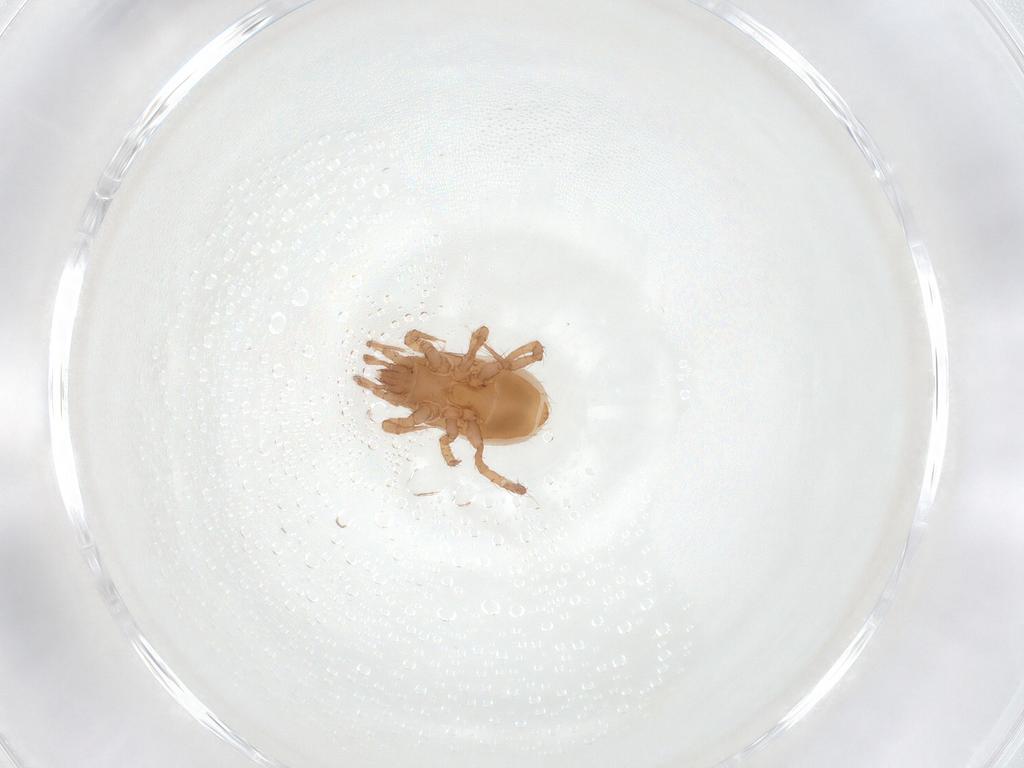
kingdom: Animalia
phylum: Arthropoda
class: Arachnida
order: Mesostigmata
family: Veigaiidae
